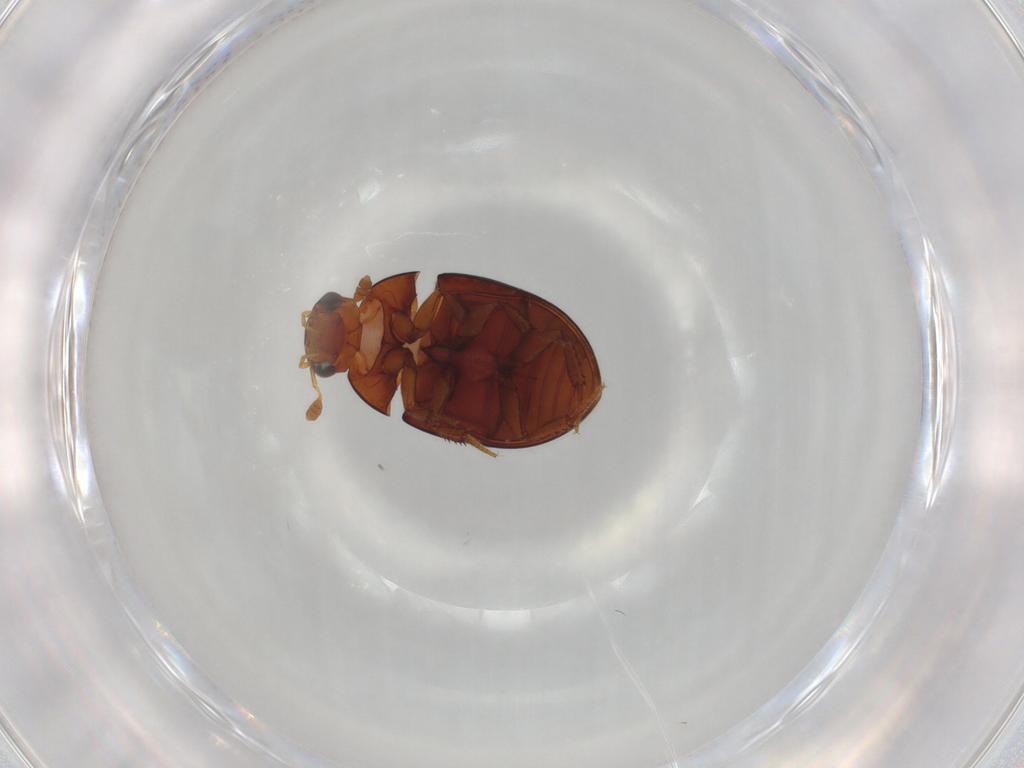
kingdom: Animalia
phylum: Arthropoda
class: Insecta
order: Coleoptera
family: Hydrophilidae
